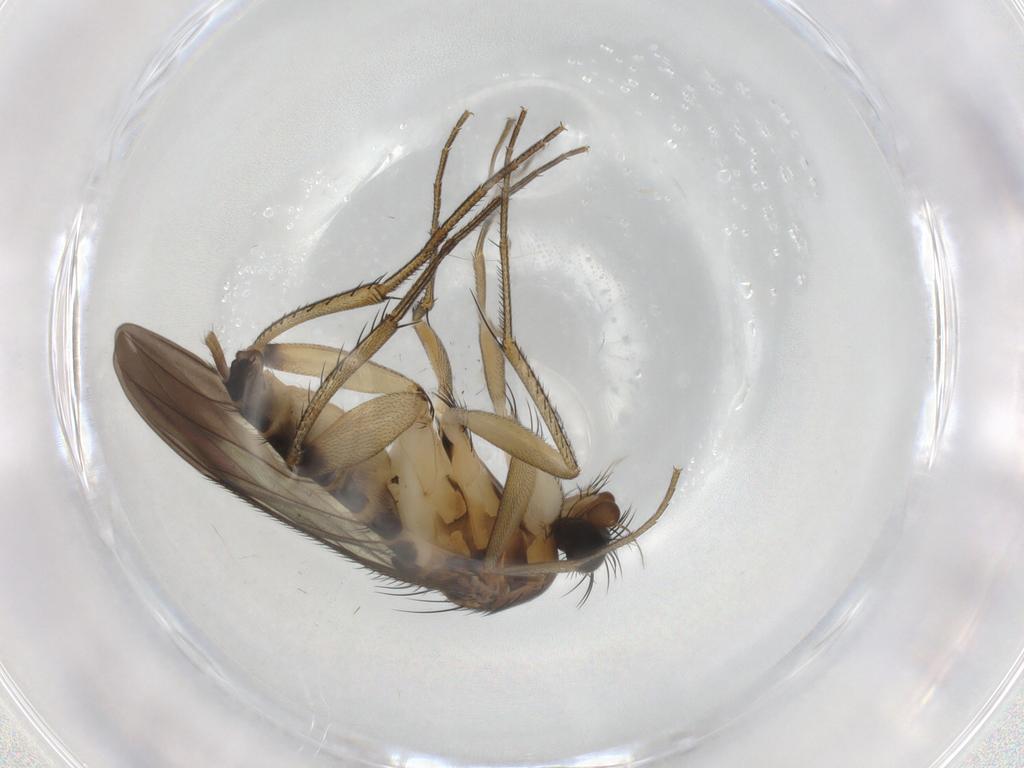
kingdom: Animalia
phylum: Arthropoda
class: Insecta
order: Diptera
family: Phoridae
